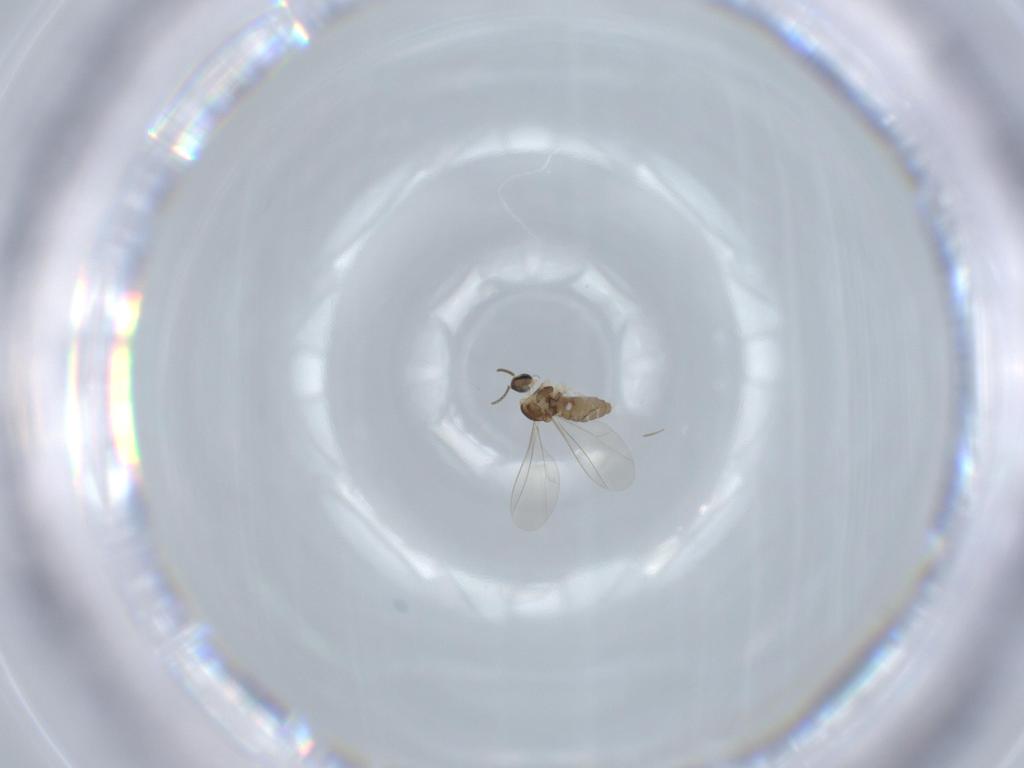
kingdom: Animalia
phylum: Arthropoda
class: Insecta
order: Diptera
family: Cecidomyiidae
